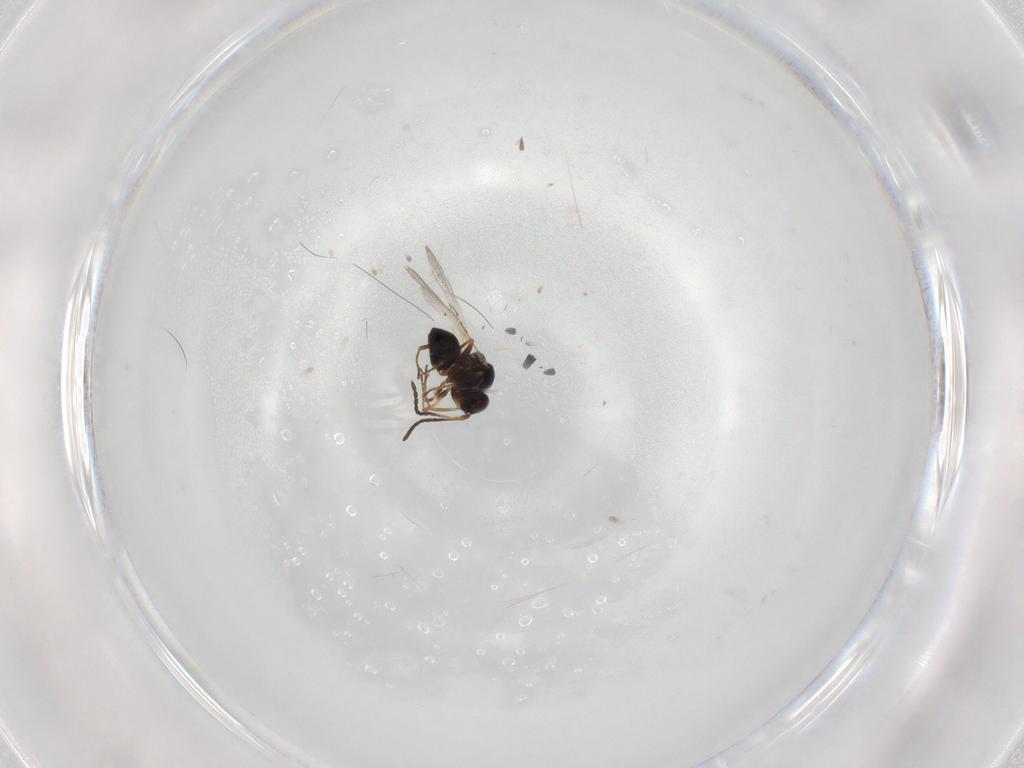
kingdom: Animalia
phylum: Arthropoda
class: Insecta
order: Hymenoptera
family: Figitidae
